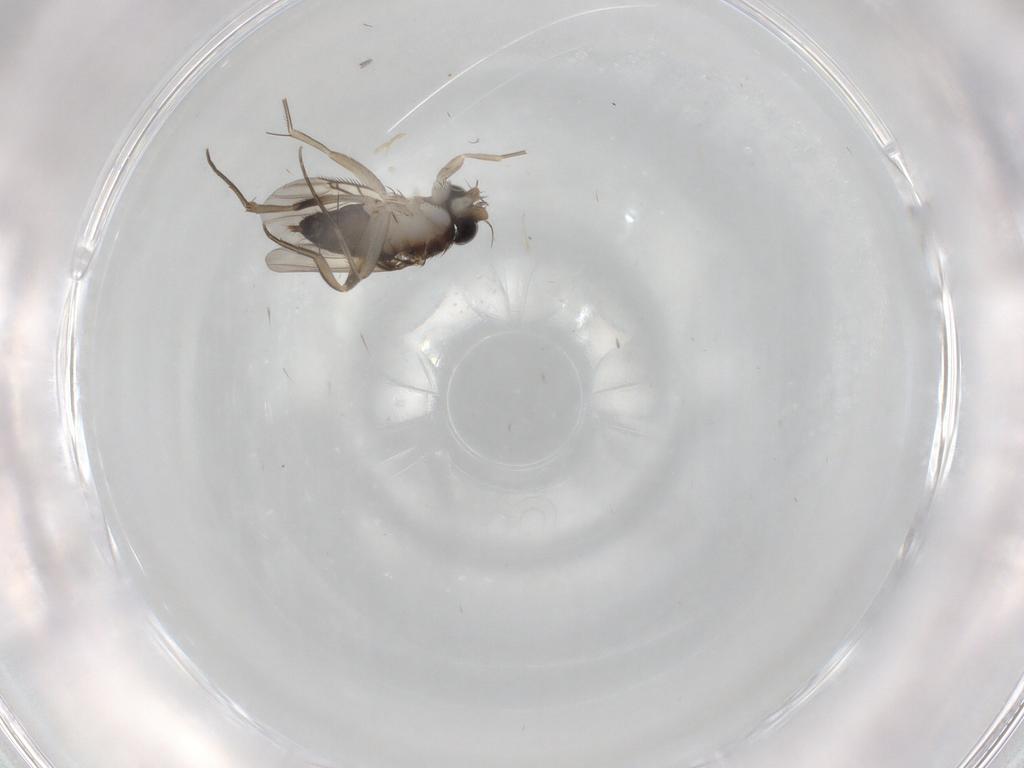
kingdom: Animalia
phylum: Arthropoda
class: Insecta
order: Diptera
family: Phoridae
